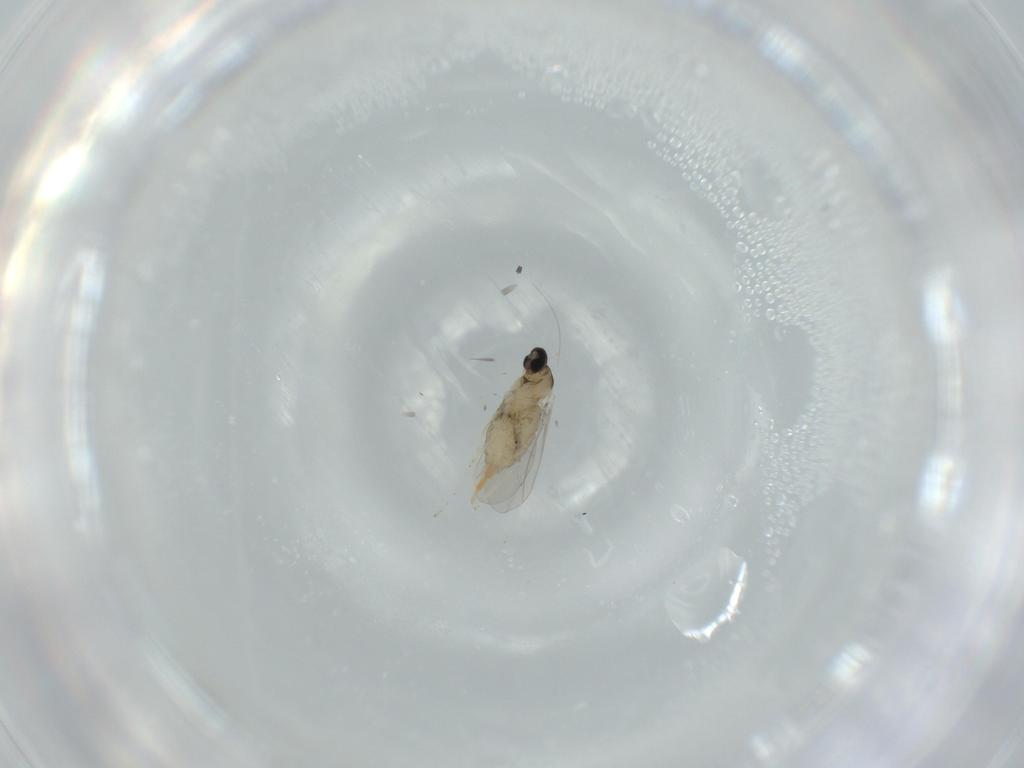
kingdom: Animalia
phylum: Arthropoda
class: Insecta
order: Diptera
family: Cecidomyiidae
